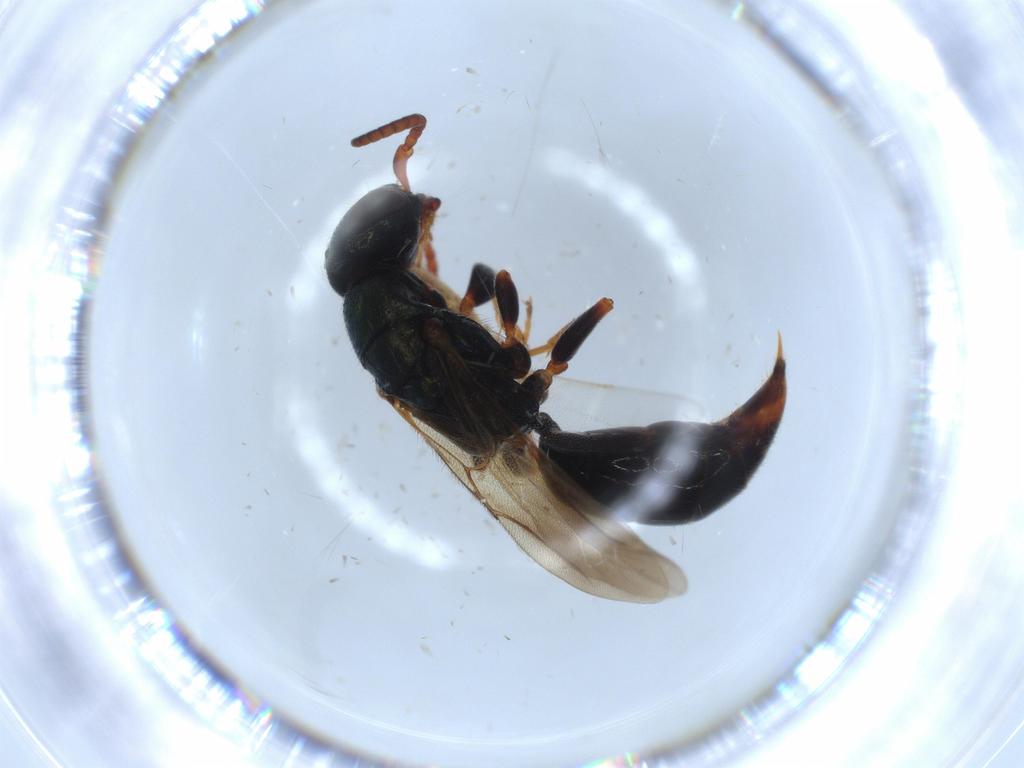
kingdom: Animalia
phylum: Arthropoda
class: Insecta
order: Hymenoptera
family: Bethylidae
